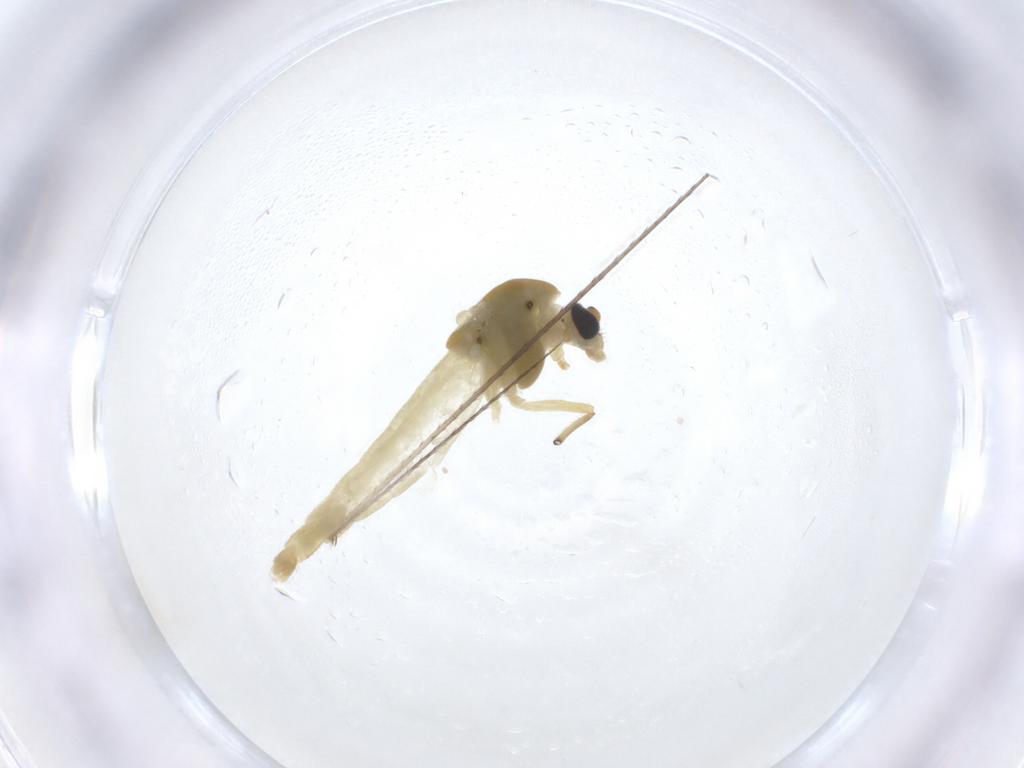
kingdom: Animalia
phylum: Arthropoda
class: Insecta
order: Diptera
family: Chironomidae
